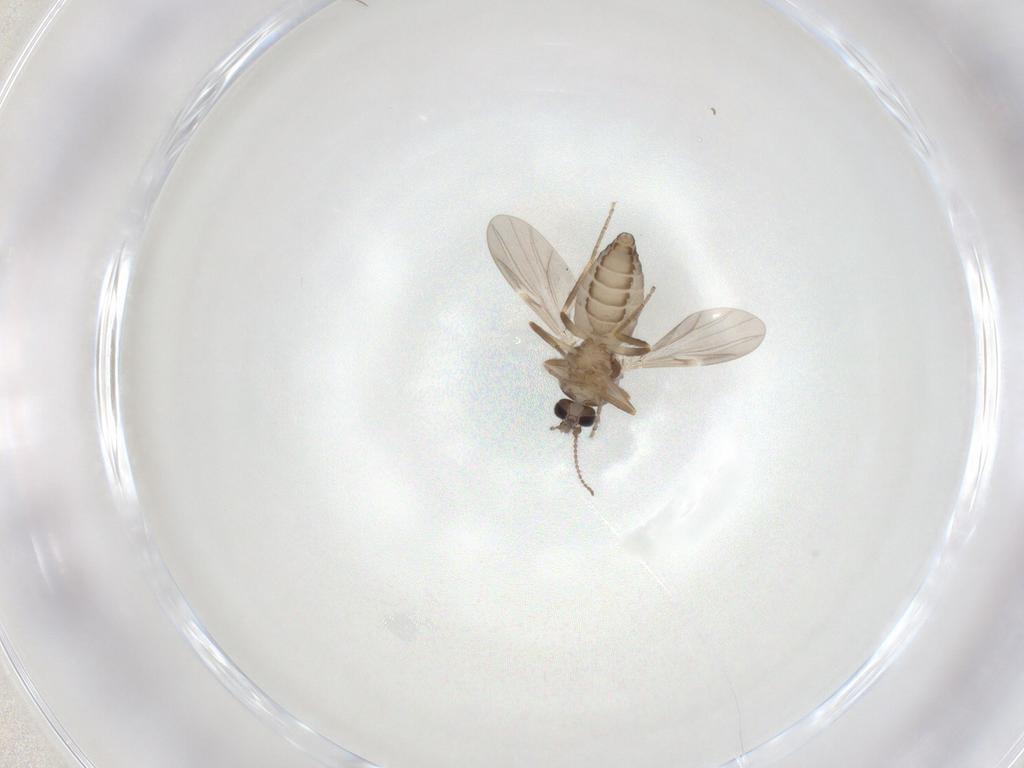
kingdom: Animalia
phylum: Arthropoda
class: Insecta
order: Diptera
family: Ceratopogonidae
